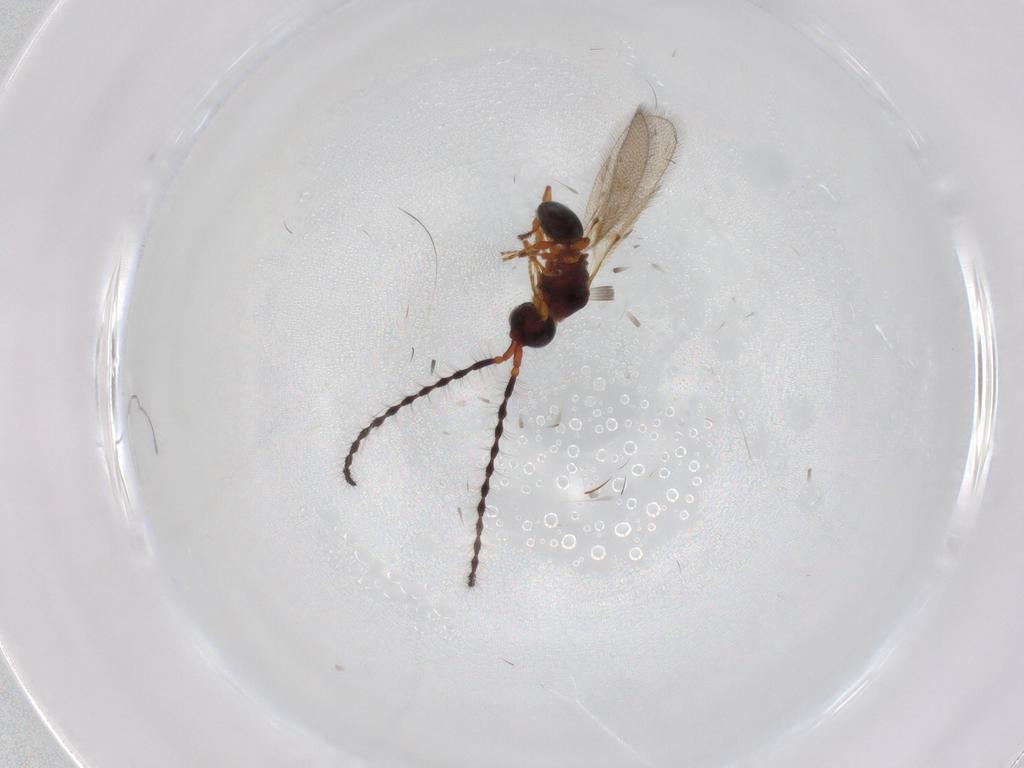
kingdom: Animalia
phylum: Arthropoda
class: Insecta
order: Hymenoptera
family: Diapriidae
